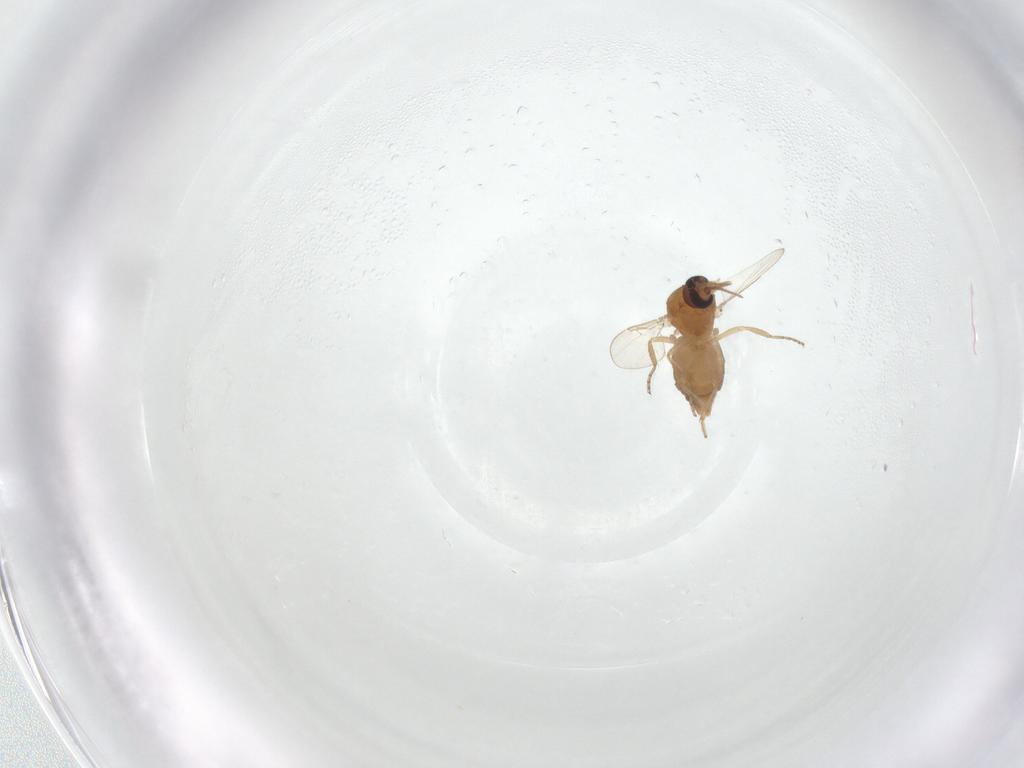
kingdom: Animalia
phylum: Arthropoda
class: Insecta
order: Diptera
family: Ceratopogonidae
